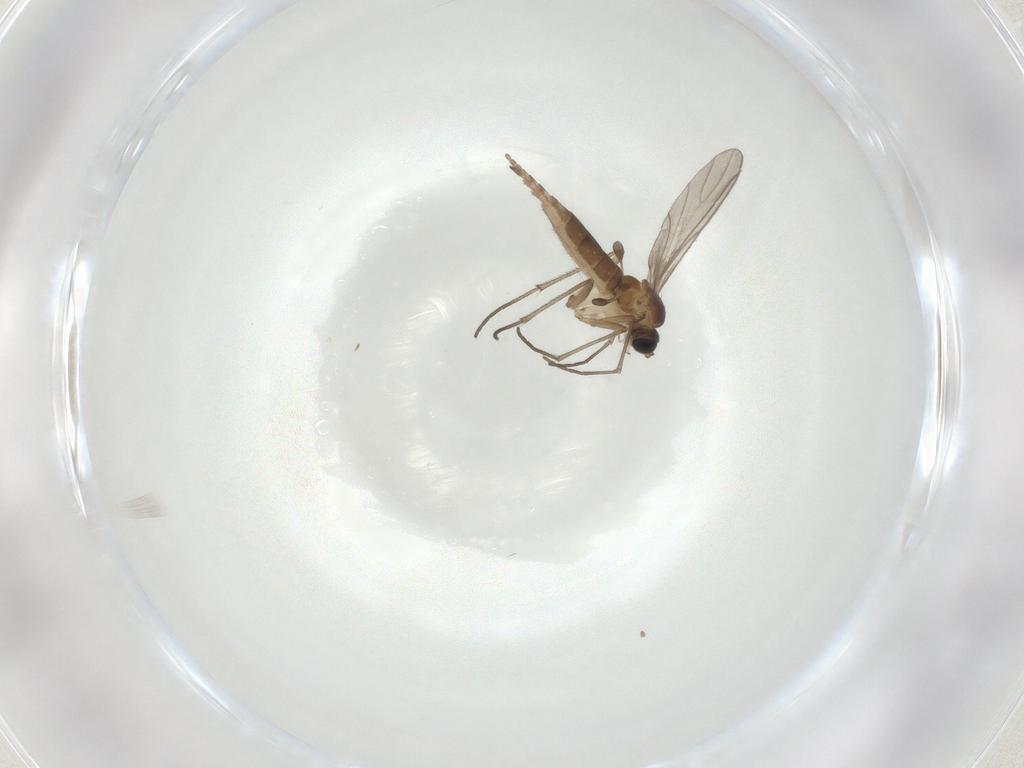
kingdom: Animalia
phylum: Arthropoda
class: Insecta
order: Diptera
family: Sciaridae
